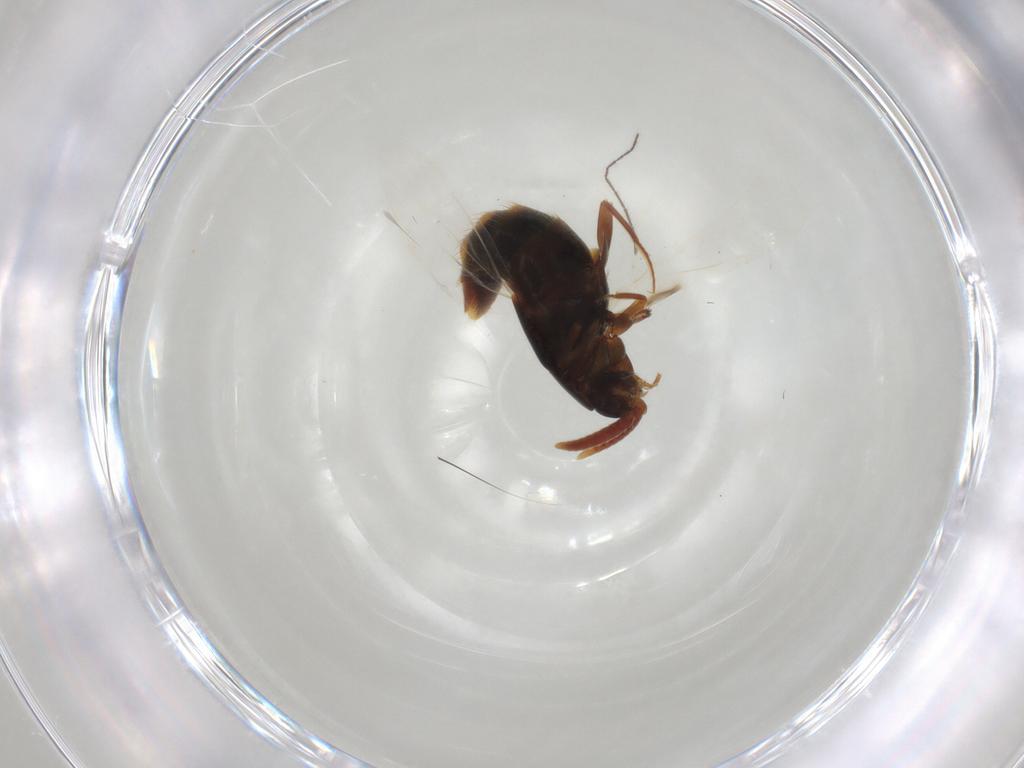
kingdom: Animalia
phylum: Arthropoda
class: Insecta
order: Coleoptera
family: Staphylinidae
